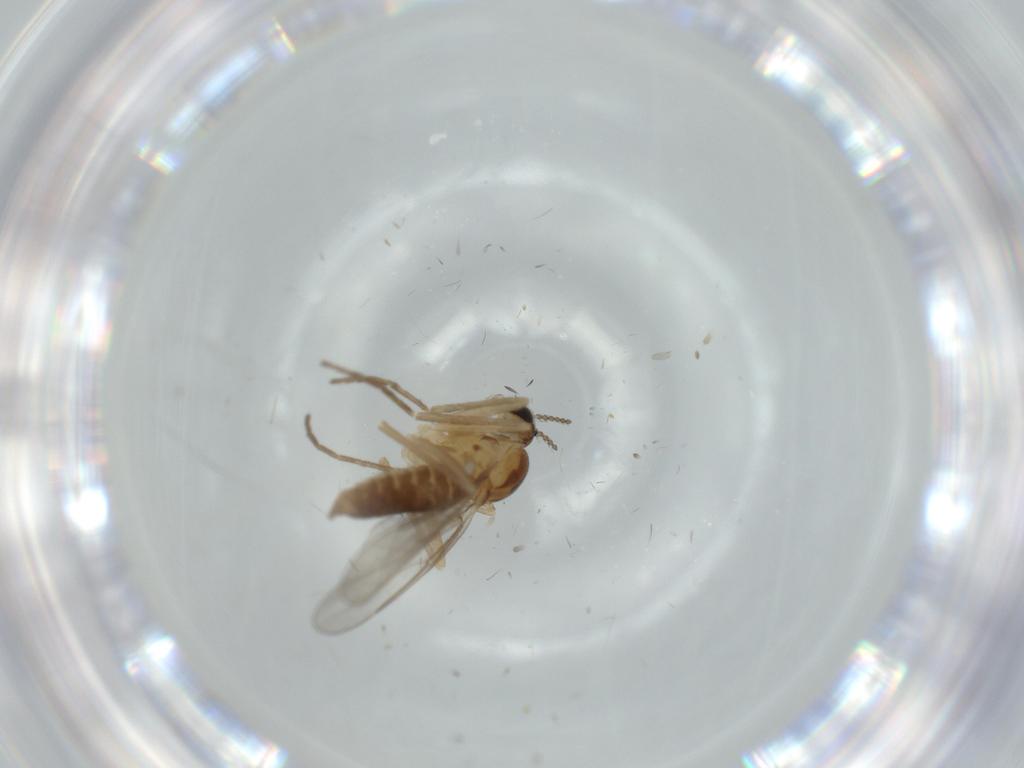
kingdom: Animalia
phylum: Arthropoda
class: Insecta
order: Diptera
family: Cecidomyiidae
